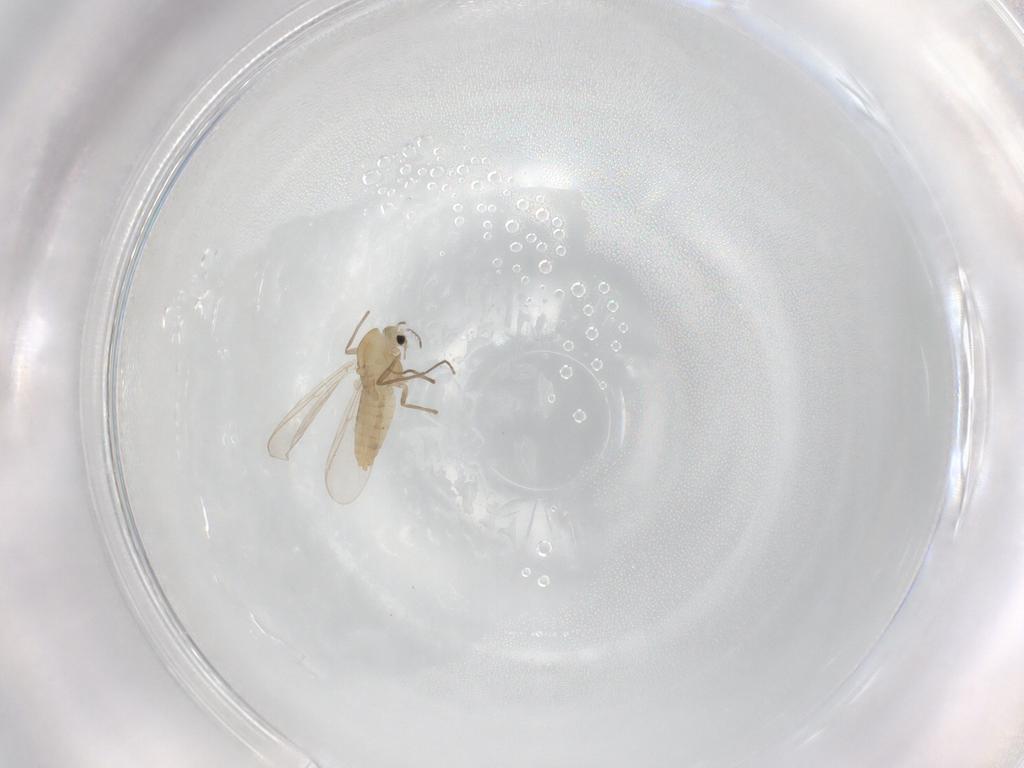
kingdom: Animalia
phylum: Arthropoda
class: Insecta
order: Diptera
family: Chironomidae
